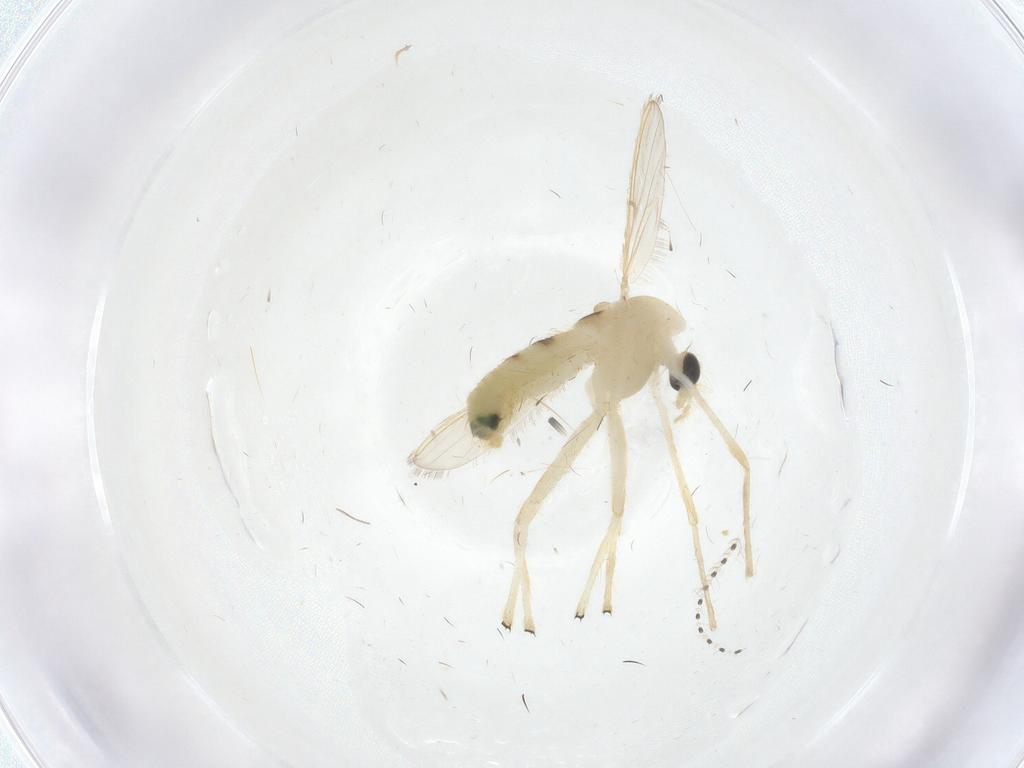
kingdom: Animalia
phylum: Arthropoda
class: Insecta
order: Diptera
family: Chironomidae
